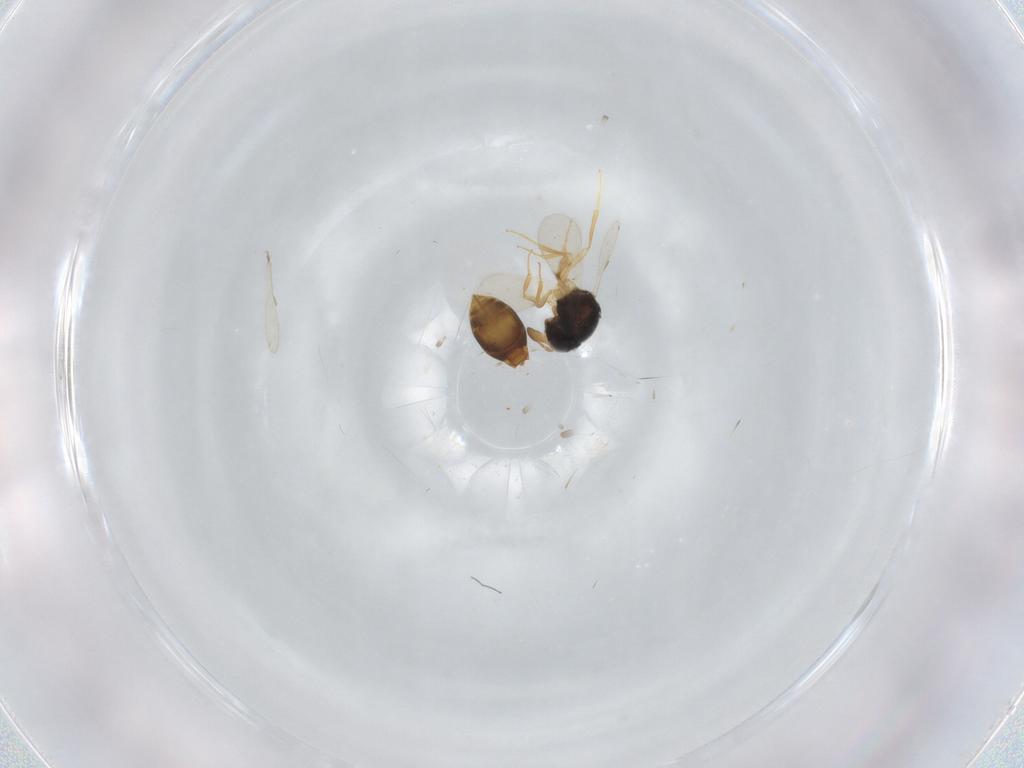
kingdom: Animalia
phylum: Arthropoda
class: Insecta
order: Hymenoptera
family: Scelionidae
